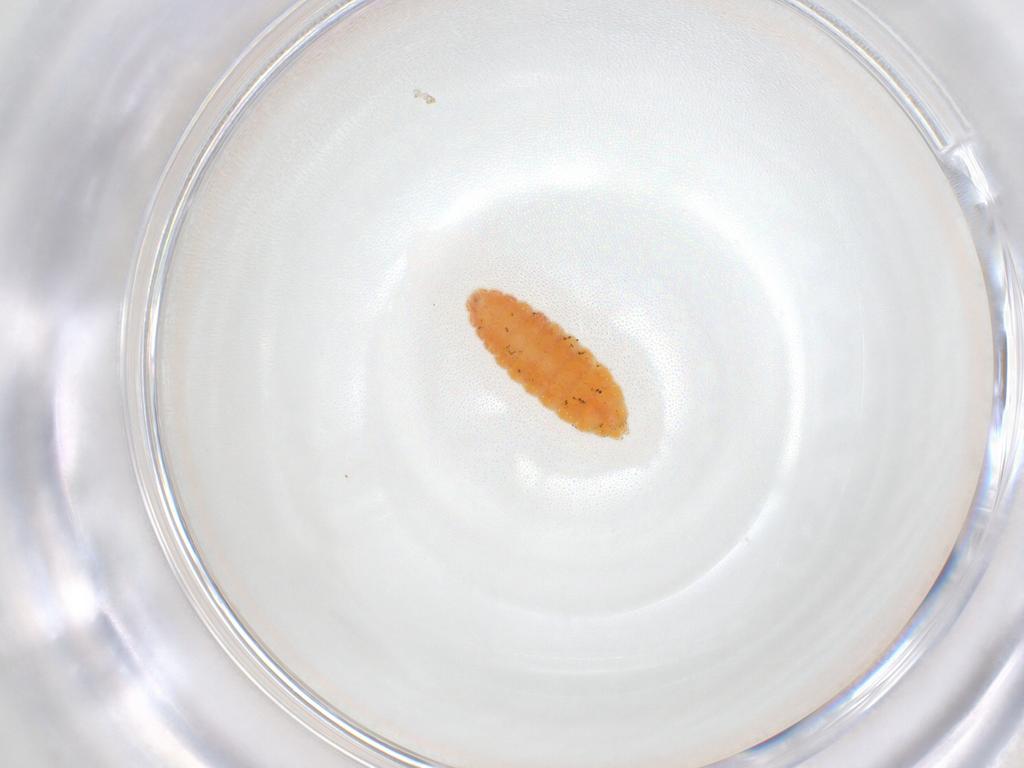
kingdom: Animalia
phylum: Arthropoda
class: Insecta
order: Diptera
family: Cecidomyiidae
